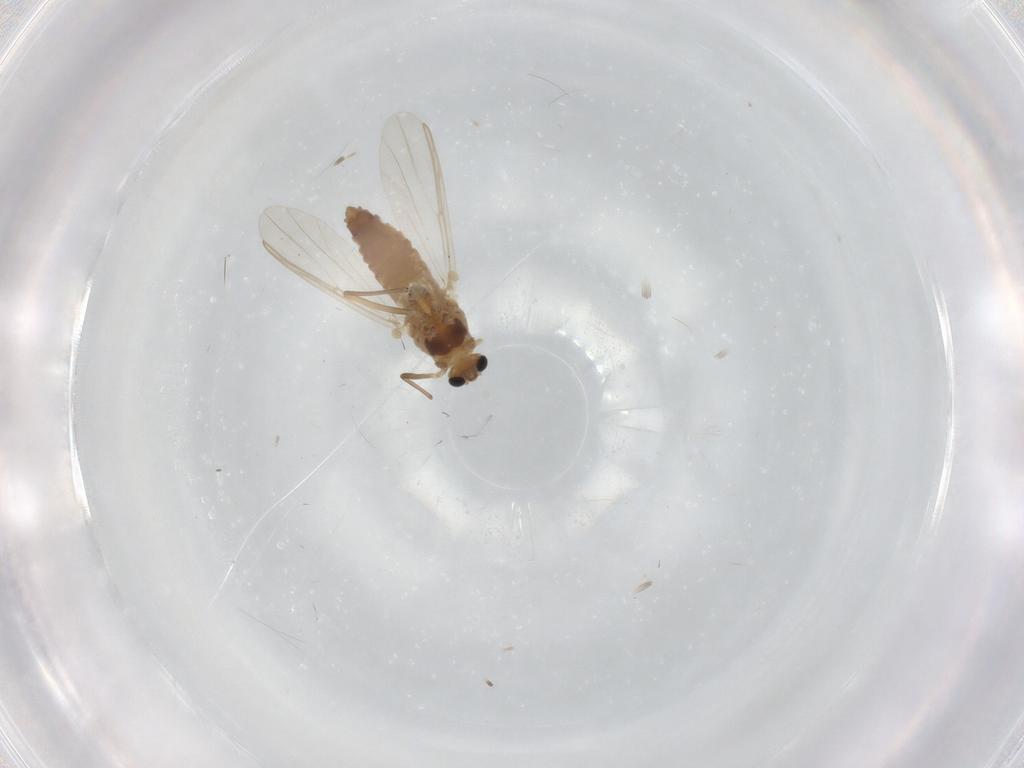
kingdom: Animalia
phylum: Arthropoda
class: Insecta
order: Diptera
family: Chironomidae
